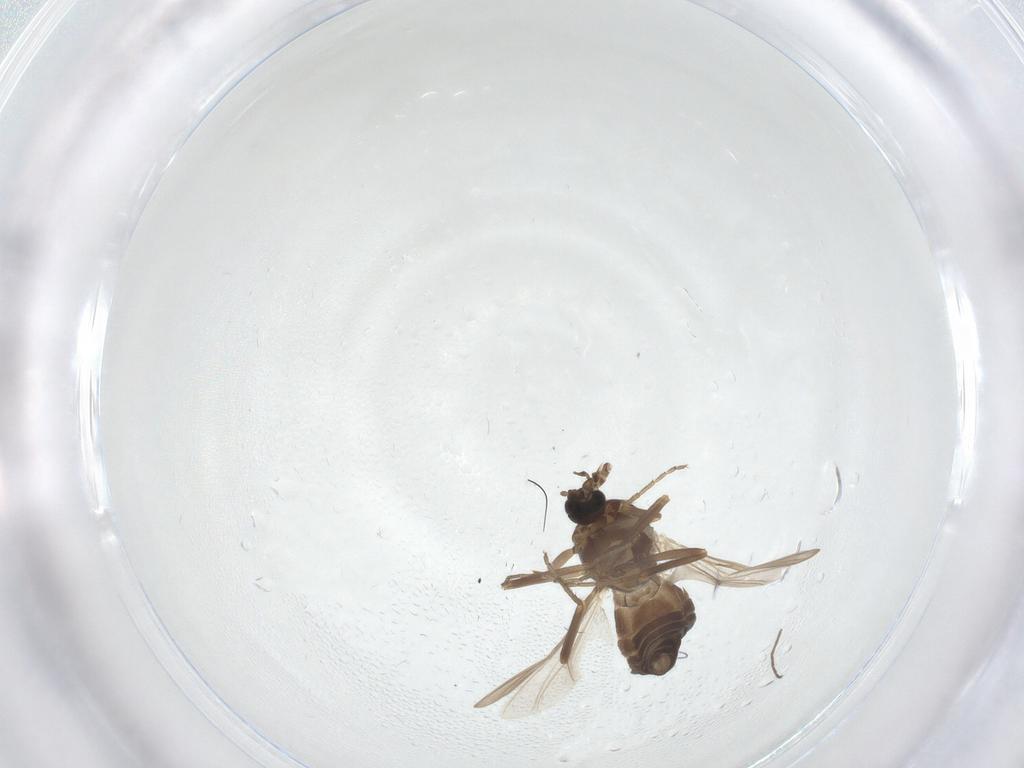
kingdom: Animalia
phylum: Arthropoda
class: Insecta
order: Diptera
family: Ceratopogonidae
